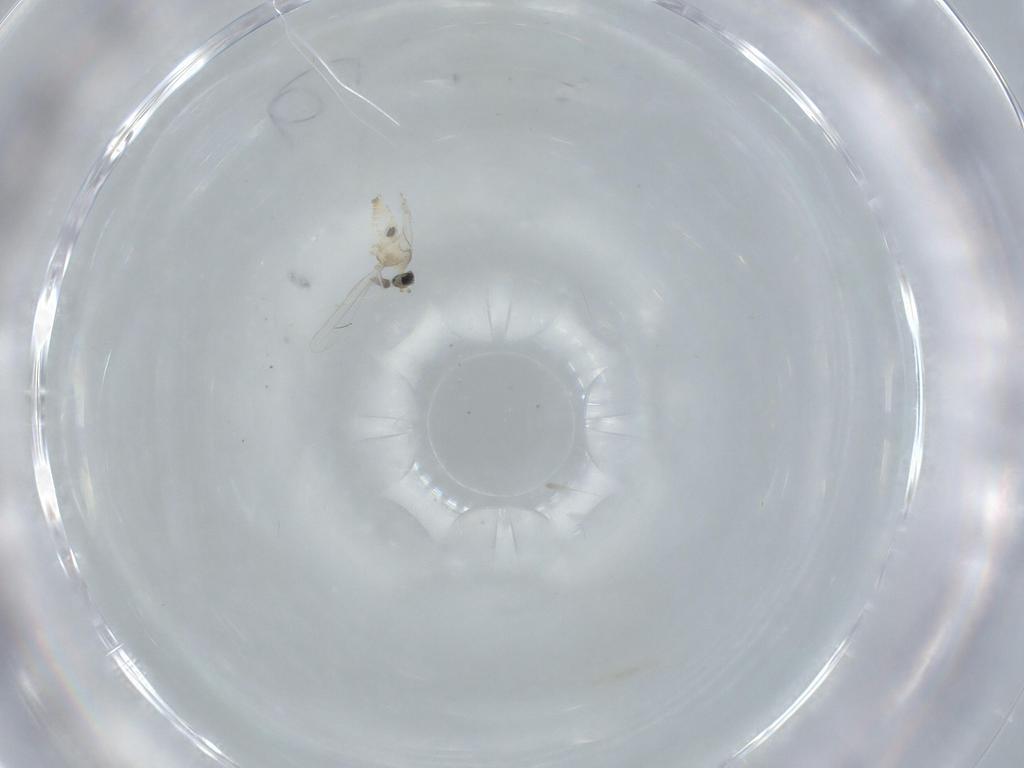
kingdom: Animalia
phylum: Arthropoda
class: Insecta
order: Diptera
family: Cecidomyiidae
